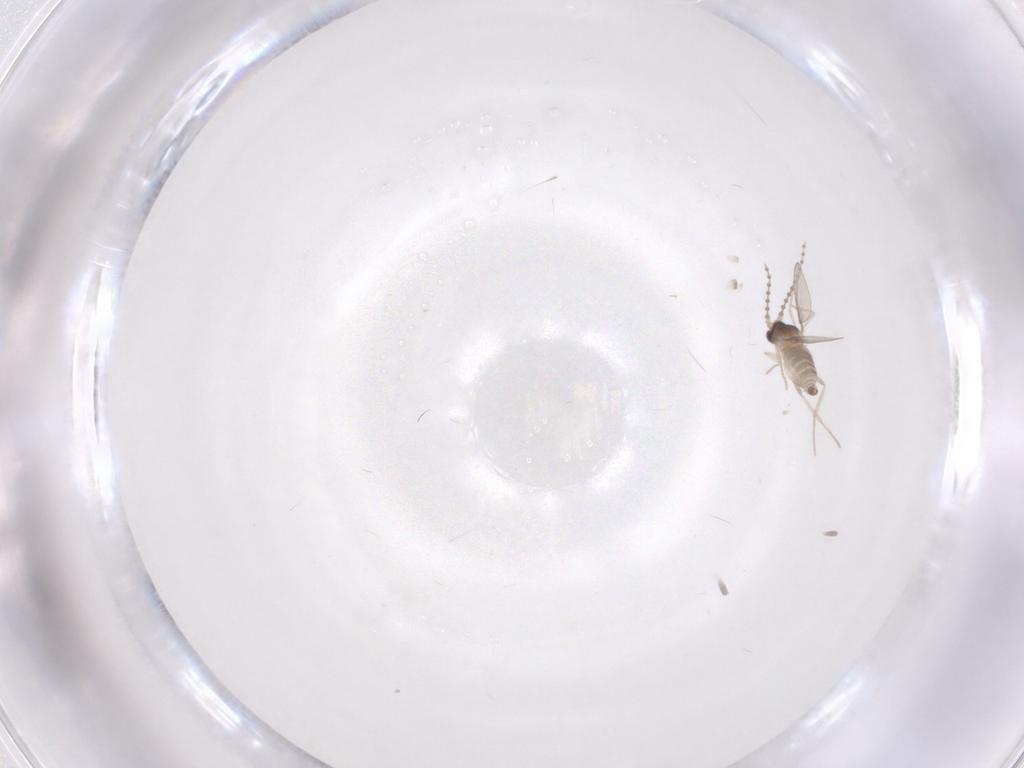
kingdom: Animalia
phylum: Arthropoda
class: Insecta
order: Diptera
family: Cecidomyiidae
